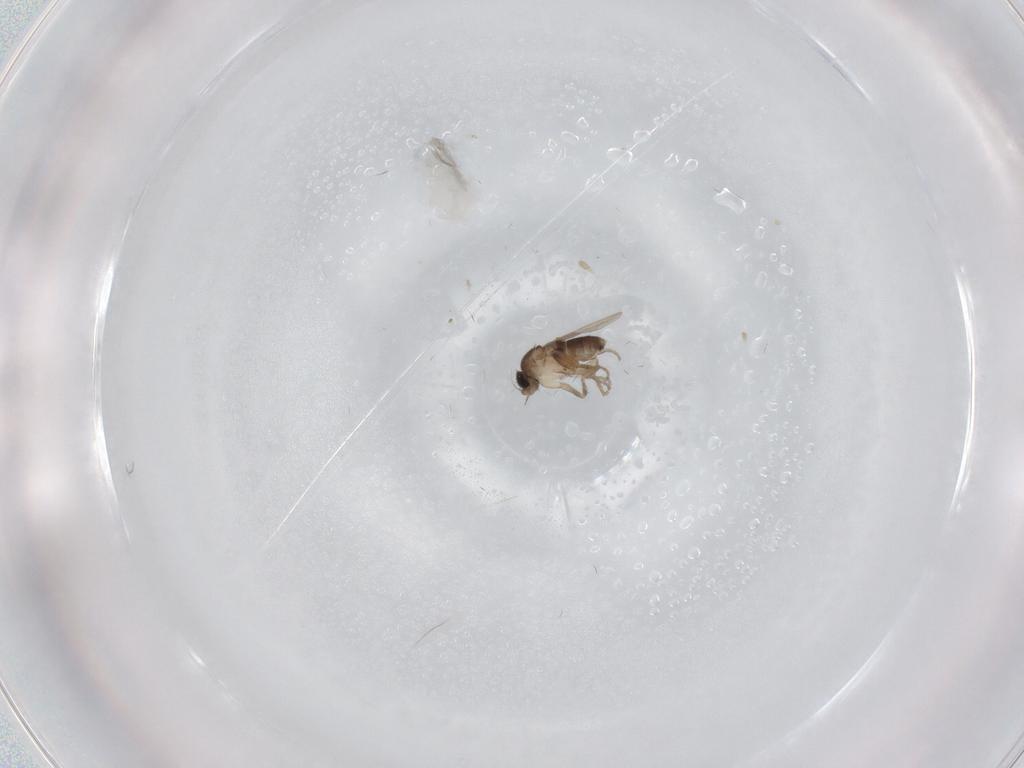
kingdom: Animalia
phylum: Arthropoda
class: Insecta
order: Diptera
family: Phoridae
